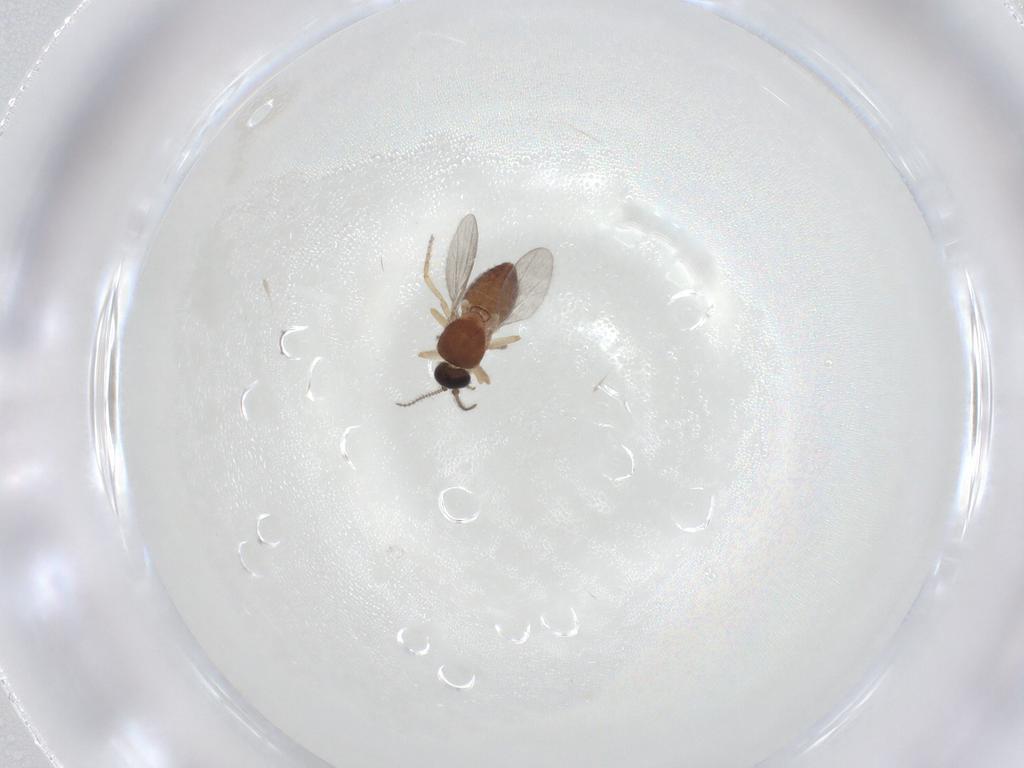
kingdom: Animalia
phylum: Arthropoda
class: Insecta
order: Diptera
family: Ceratopogonidae
